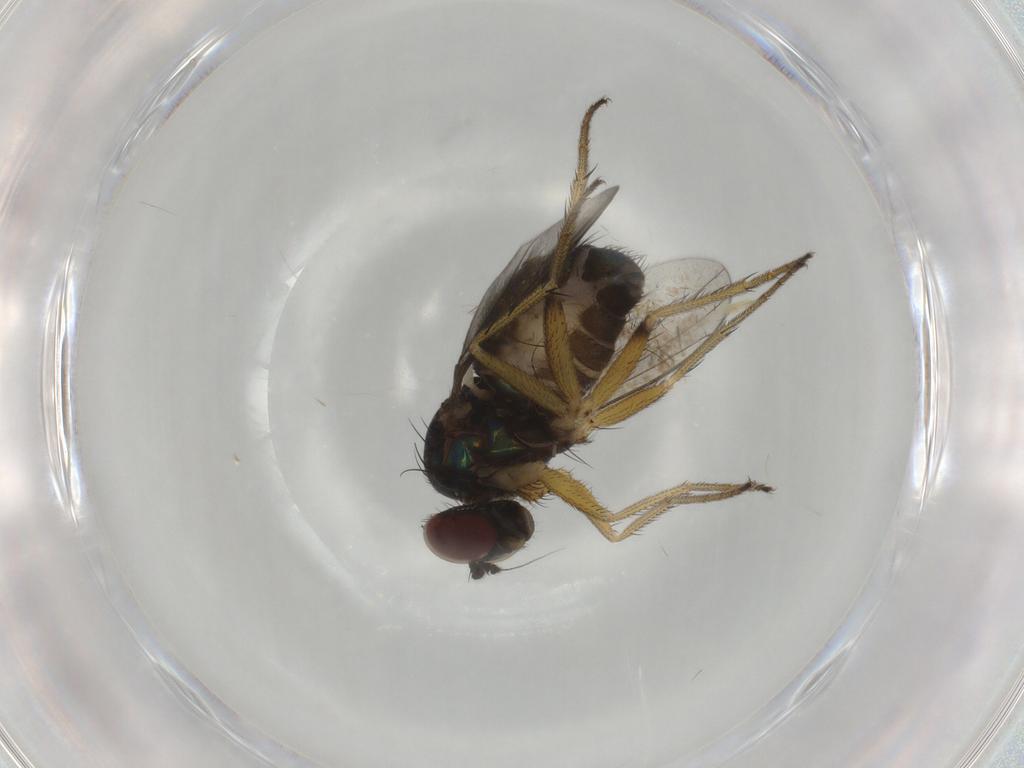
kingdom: Animalia
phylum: Arthropoda
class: Insecta
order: Diptera
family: Dolichopodidae
